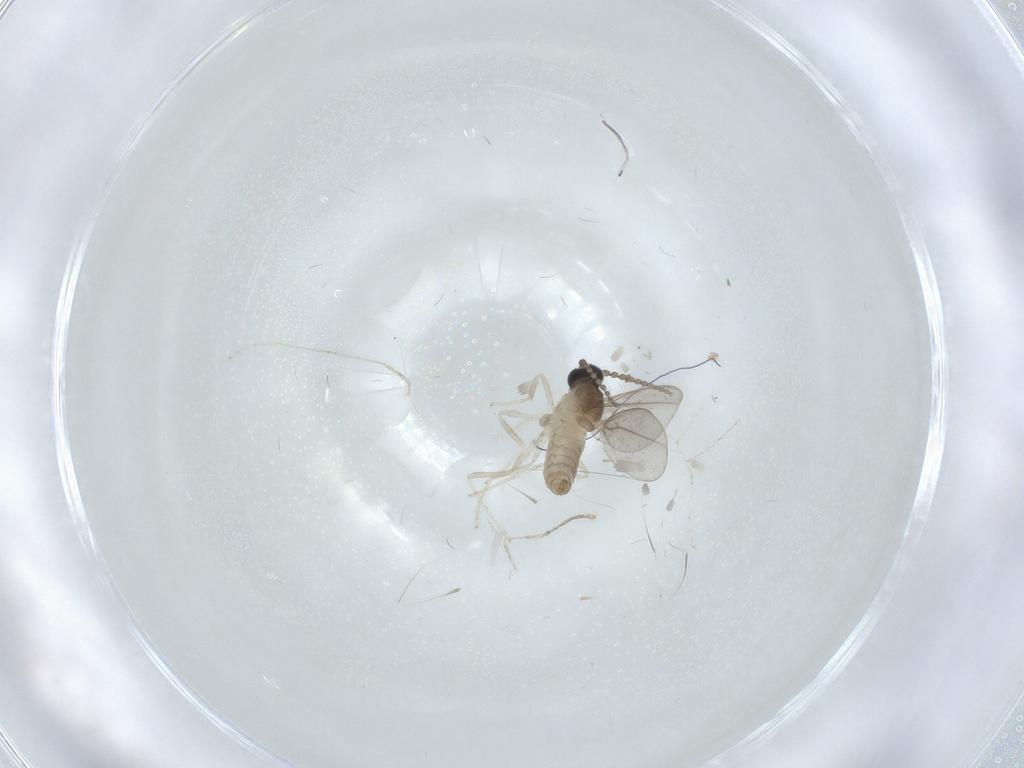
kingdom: Animalia
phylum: Arthropoda
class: Insecta
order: Diptera
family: Cecidomyiidae
